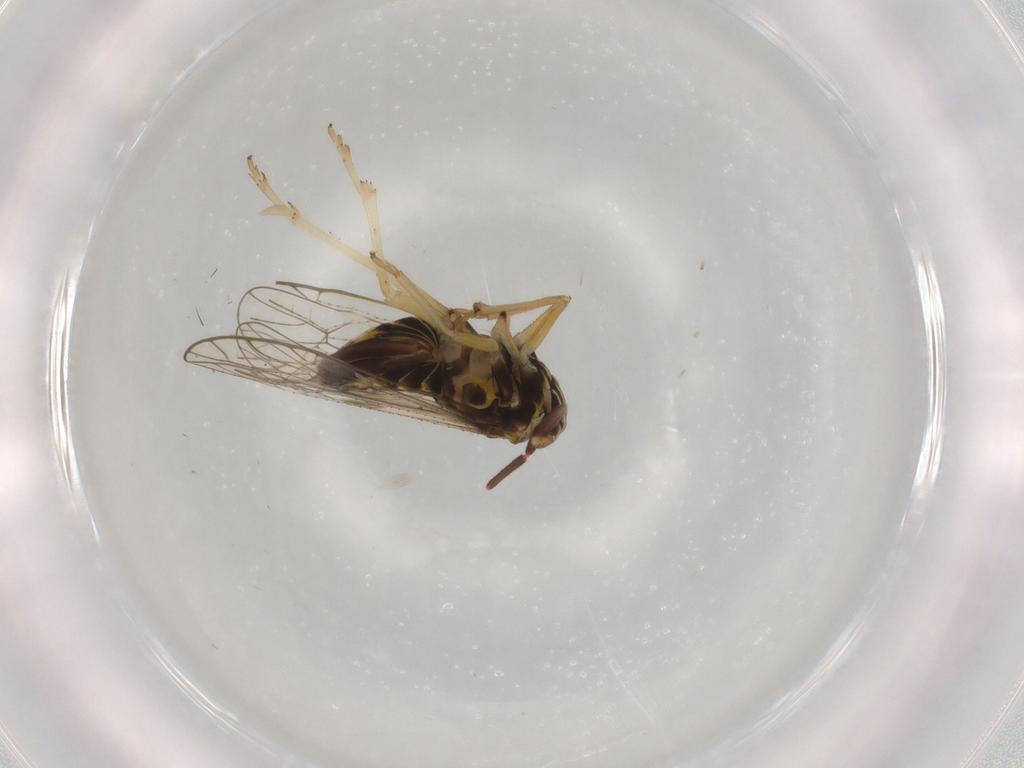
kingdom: Animalia
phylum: Arthropoda
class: Insecta
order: Hemiptera
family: Rhyparochromidae
